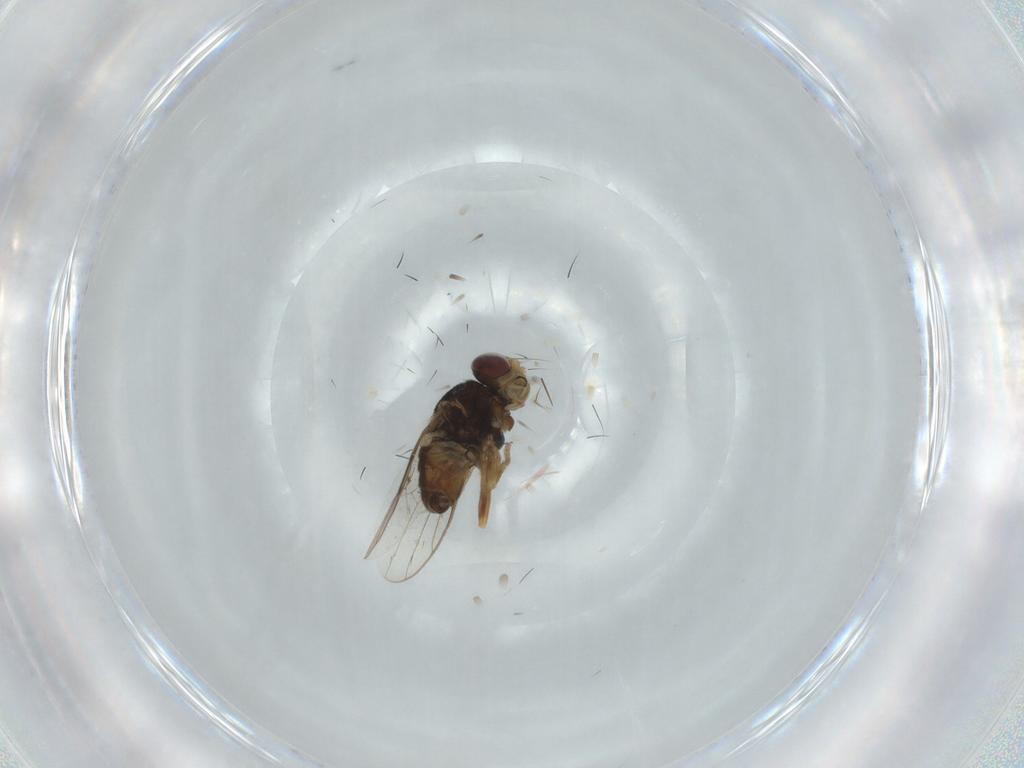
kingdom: Animalia
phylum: Arthropoda
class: Insecta
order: Diptera
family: Chloropidae
